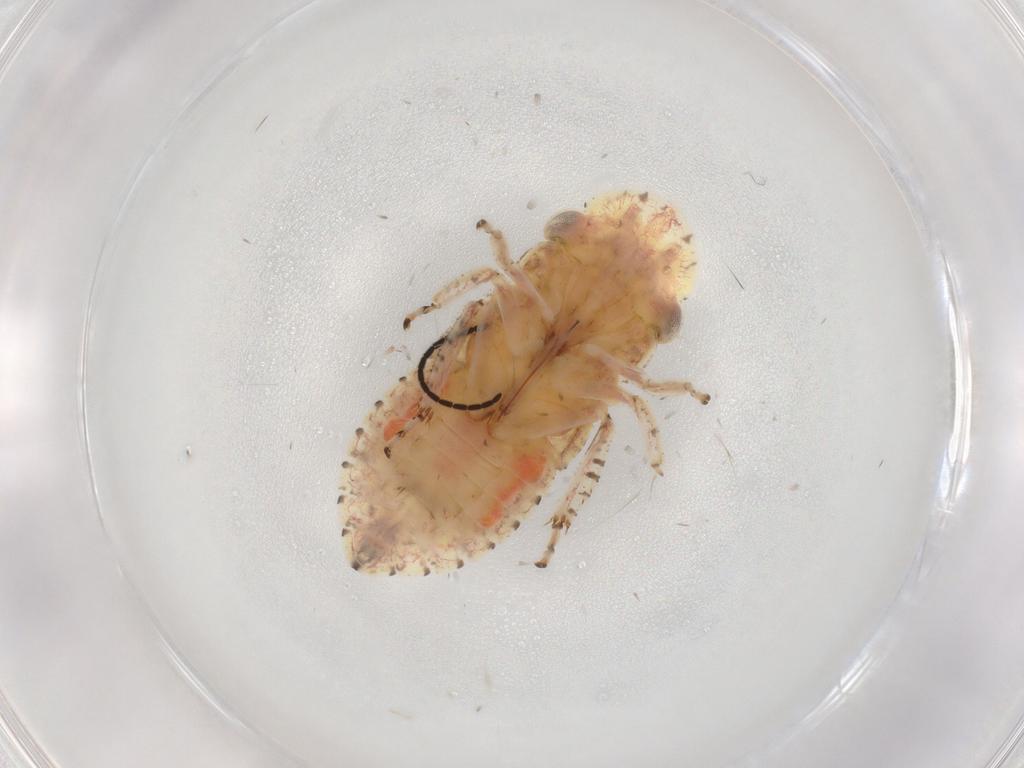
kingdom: Animalia
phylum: Arthropoda
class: Insecta
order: Hemiptera
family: Cicadellidae
